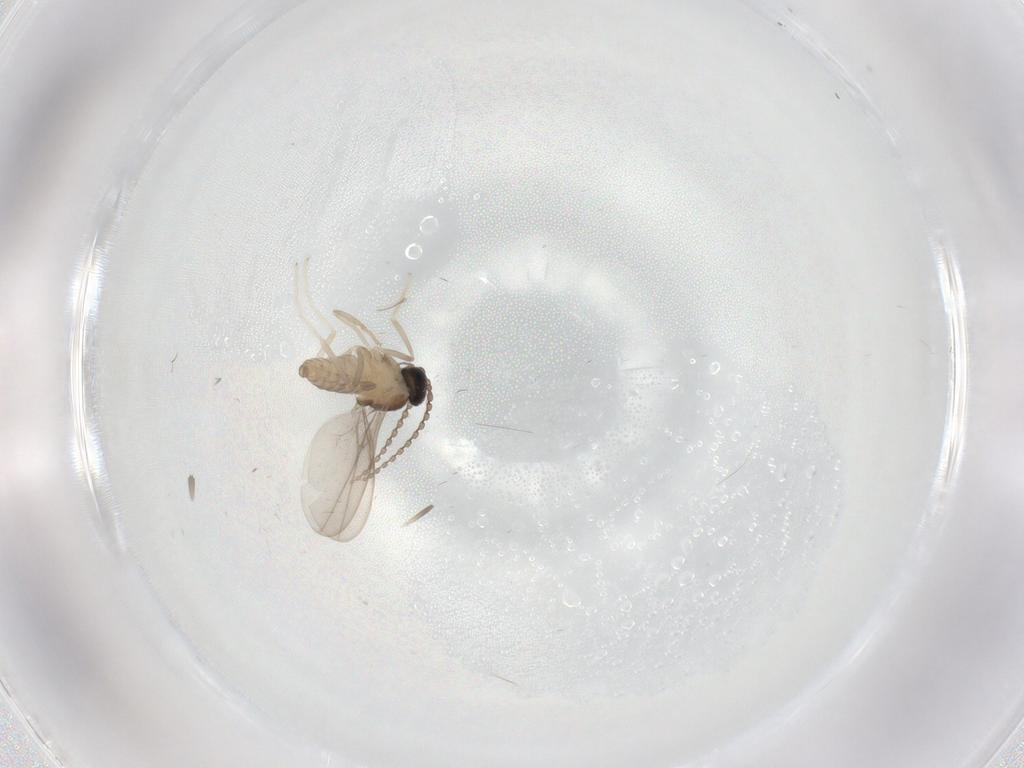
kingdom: Animalia
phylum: Arthropoda
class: Insecta
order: Diptera
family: Cecidomyiidae
